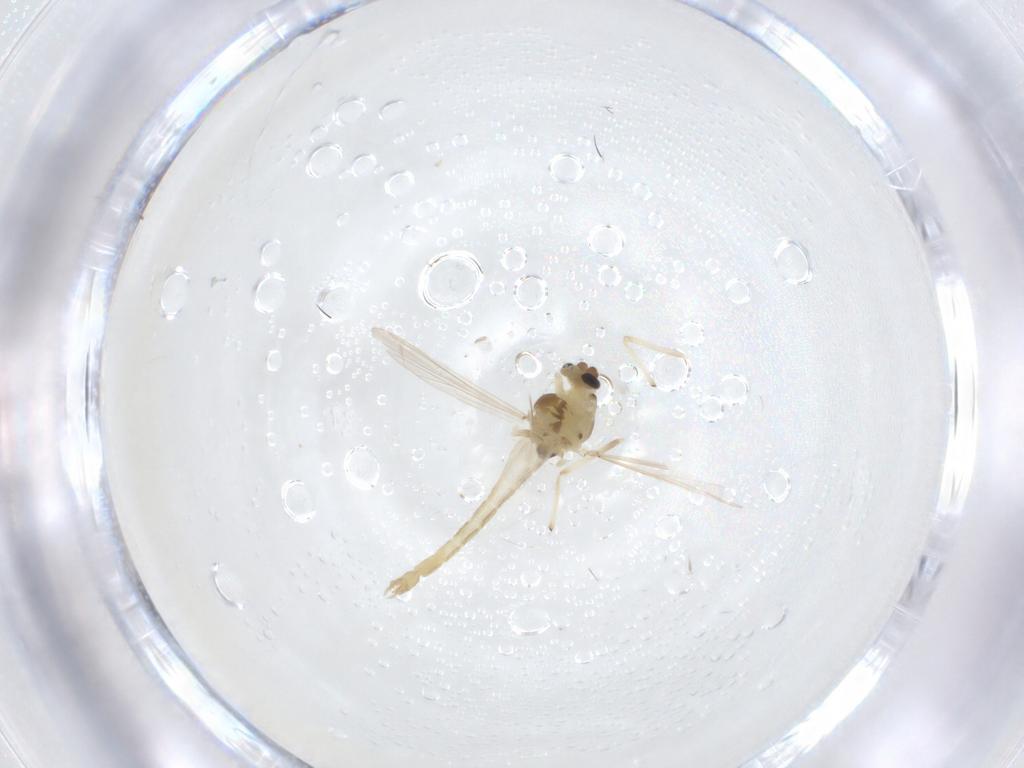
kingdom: Animalia
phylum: Arthropoda
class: Insecta
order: Diptera
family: Chironomidae
